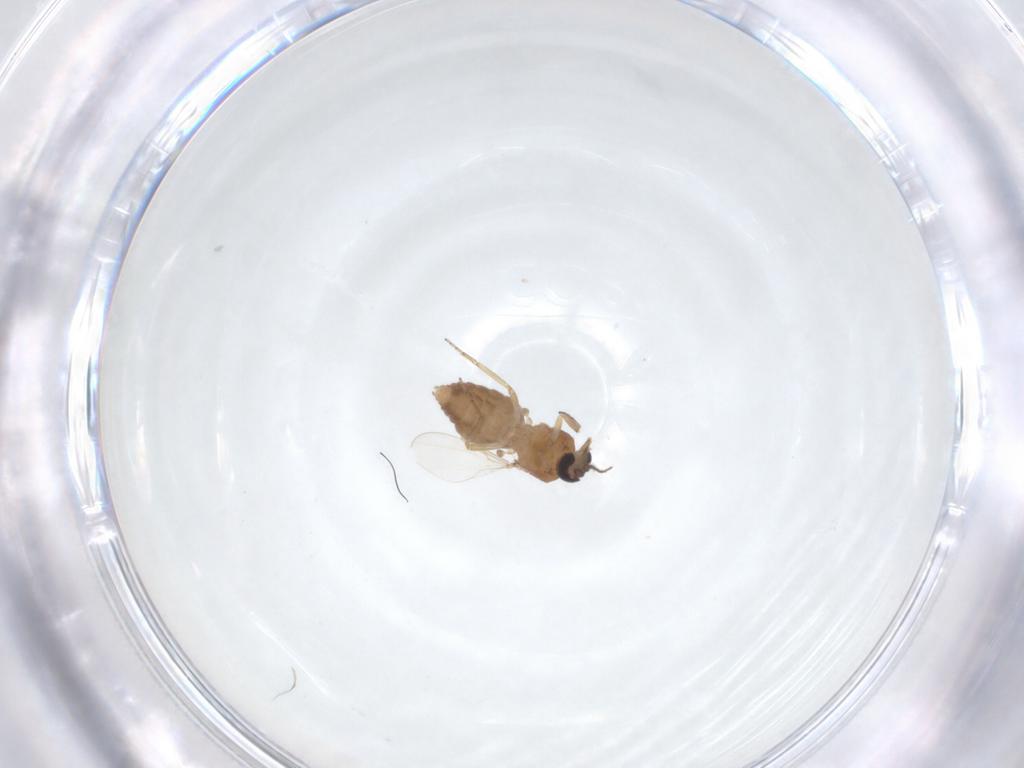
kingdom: Animalia
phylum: Arthropoda
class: Insecta
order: Diptera
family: Ceratopogonidae
